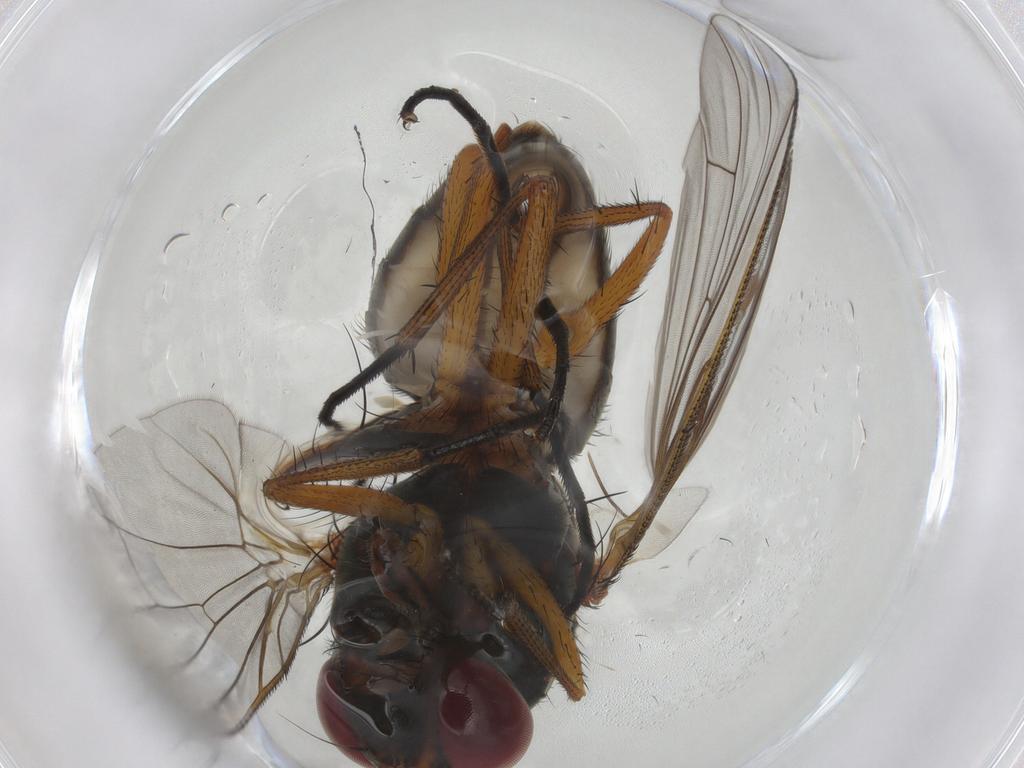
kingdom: Animalia
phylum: Arthropoda
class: Insecta
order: Diptera
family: Anthomyiidae
